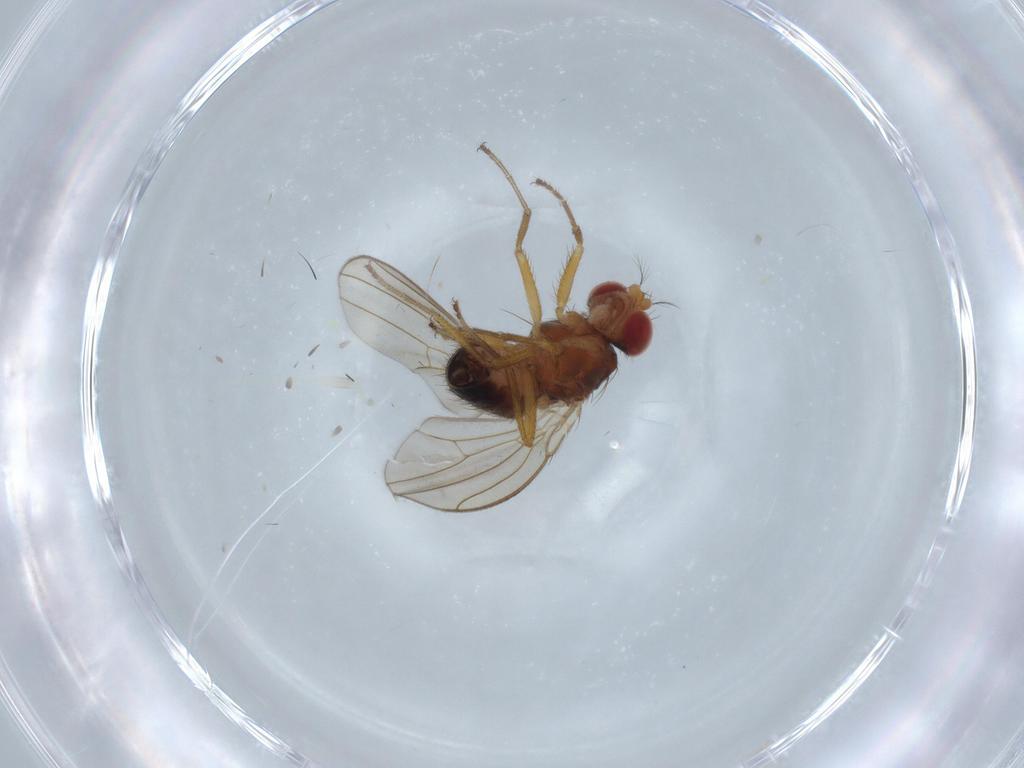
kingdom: Animalia
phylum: Arthropoda
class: Insecta
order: Diptera
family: Drosophilidae
